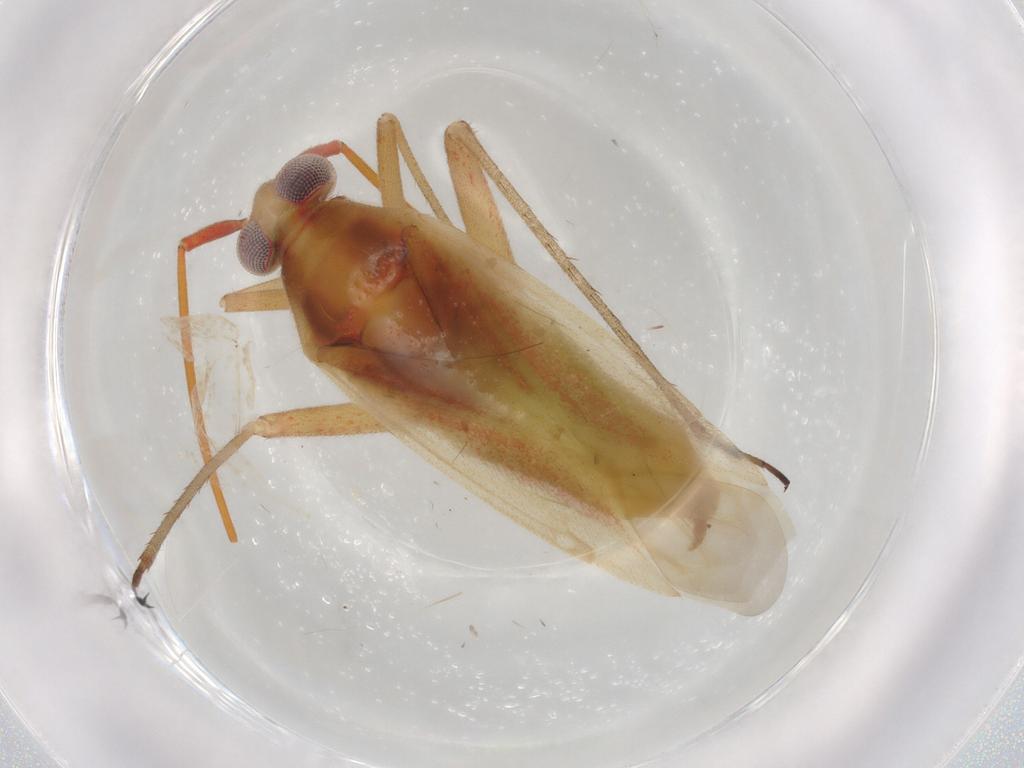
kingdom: Animalia
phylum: Arthropoda
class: Insecta
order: Hemiptera
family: Miridae
